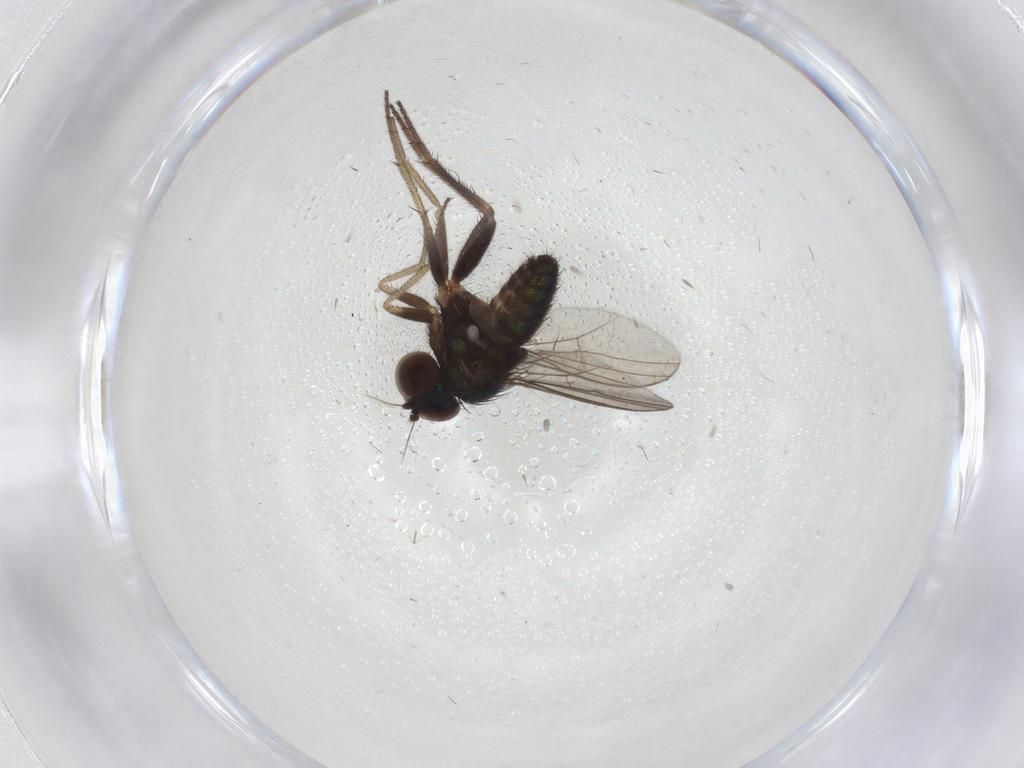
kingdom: Animalia
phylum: Arthropoda
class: Insecta
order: Diptera
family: Dolichopodidae
